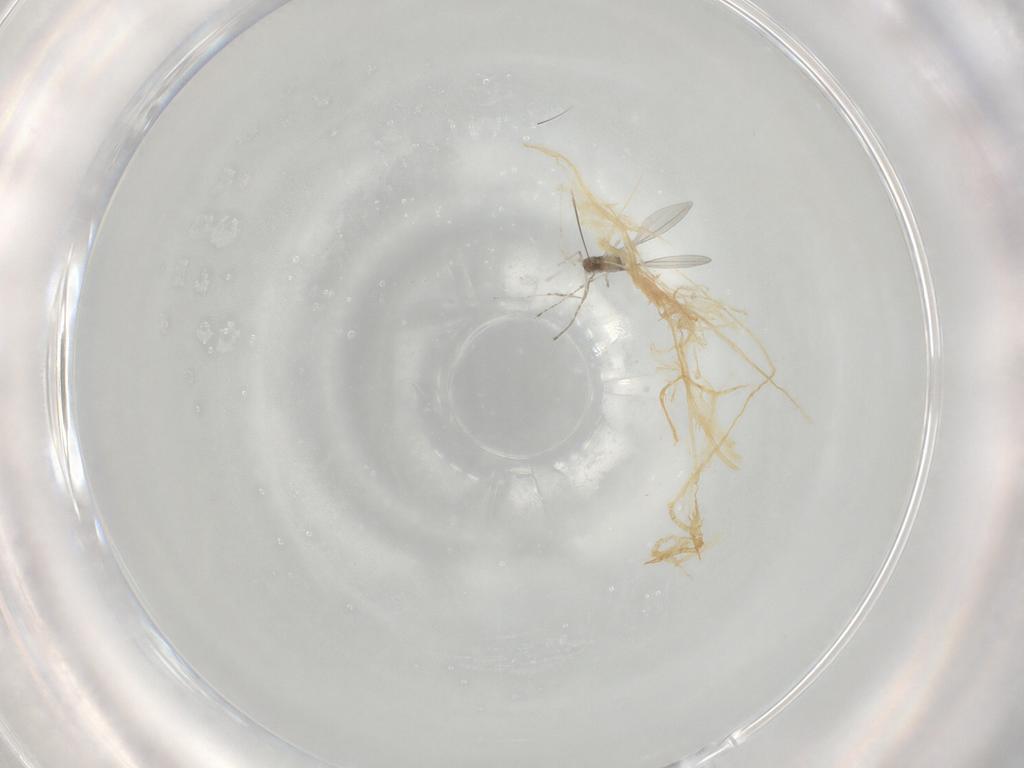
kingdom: Animalia
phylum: Arthropoda
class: Insecta
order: Diptera
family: Cecidomyiidae
